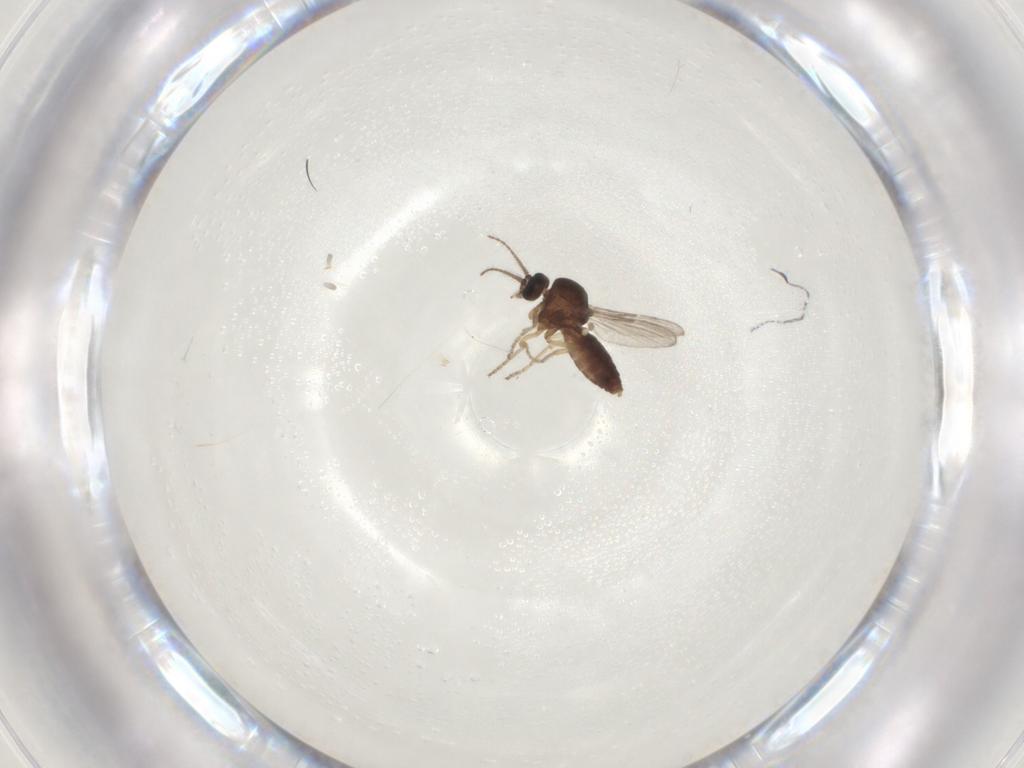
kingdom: Animalia
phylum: Arthropoda
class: Insecta
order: Diptera
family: Ceratopogonidae
